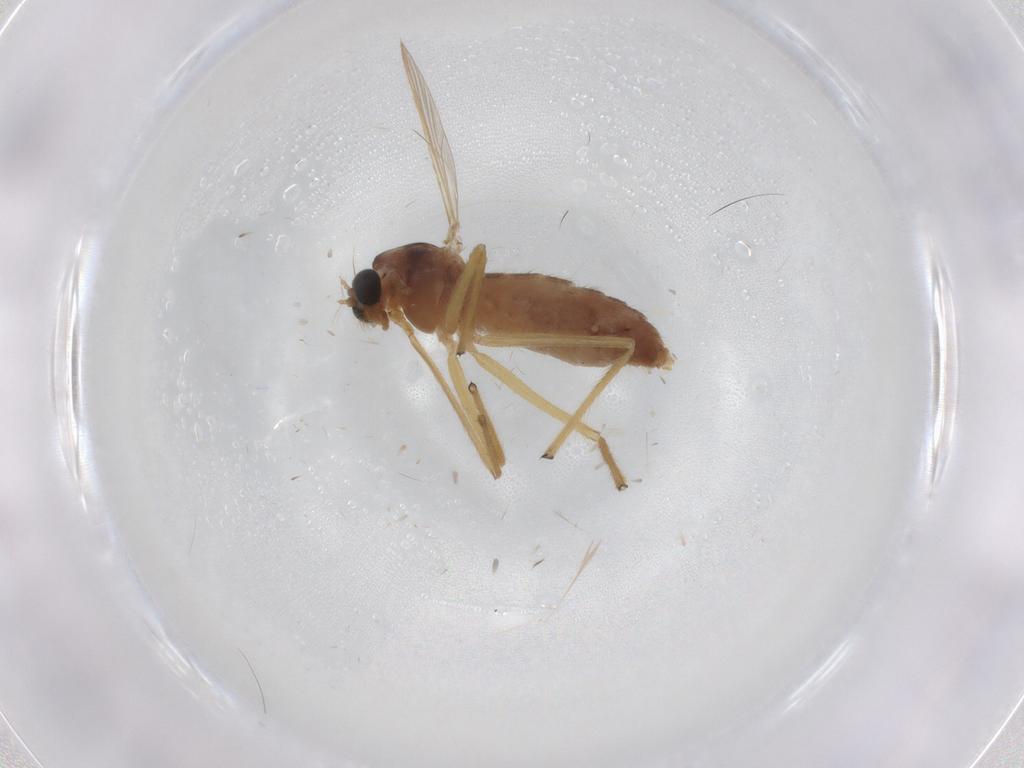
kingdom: Animalia
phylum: Arthropoda
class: Insecta
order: Diptera
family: Chironomidae
